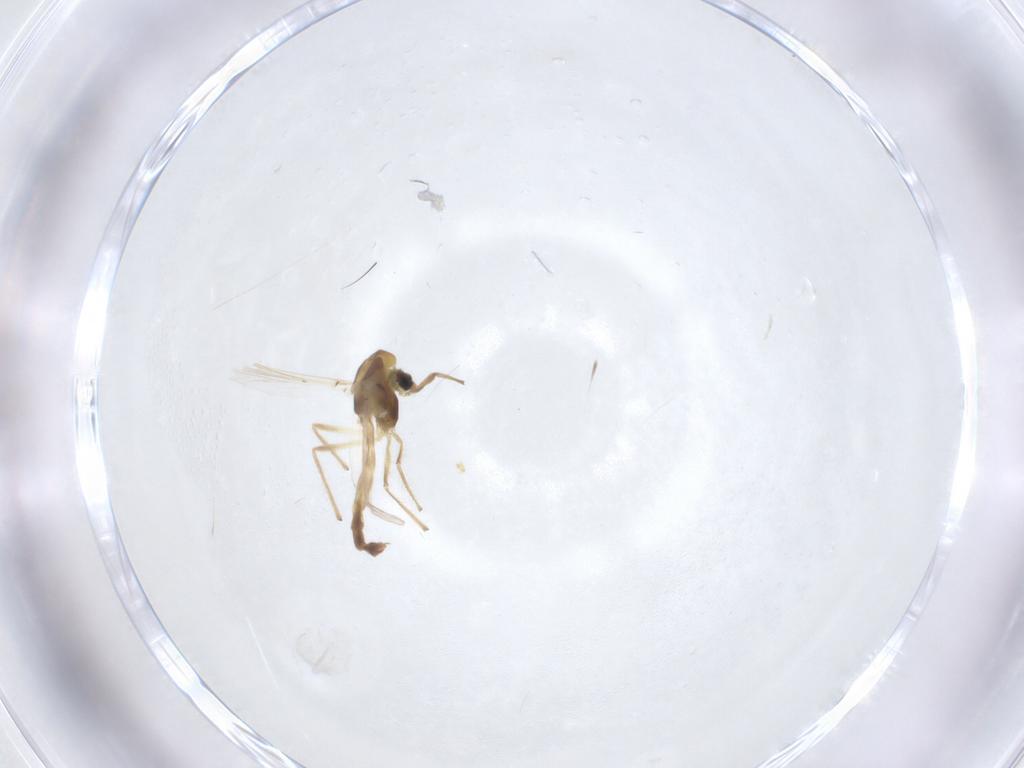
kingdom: Animalia
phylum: Arthropoda
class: Insecta
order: Diptera
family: Chironomidae
